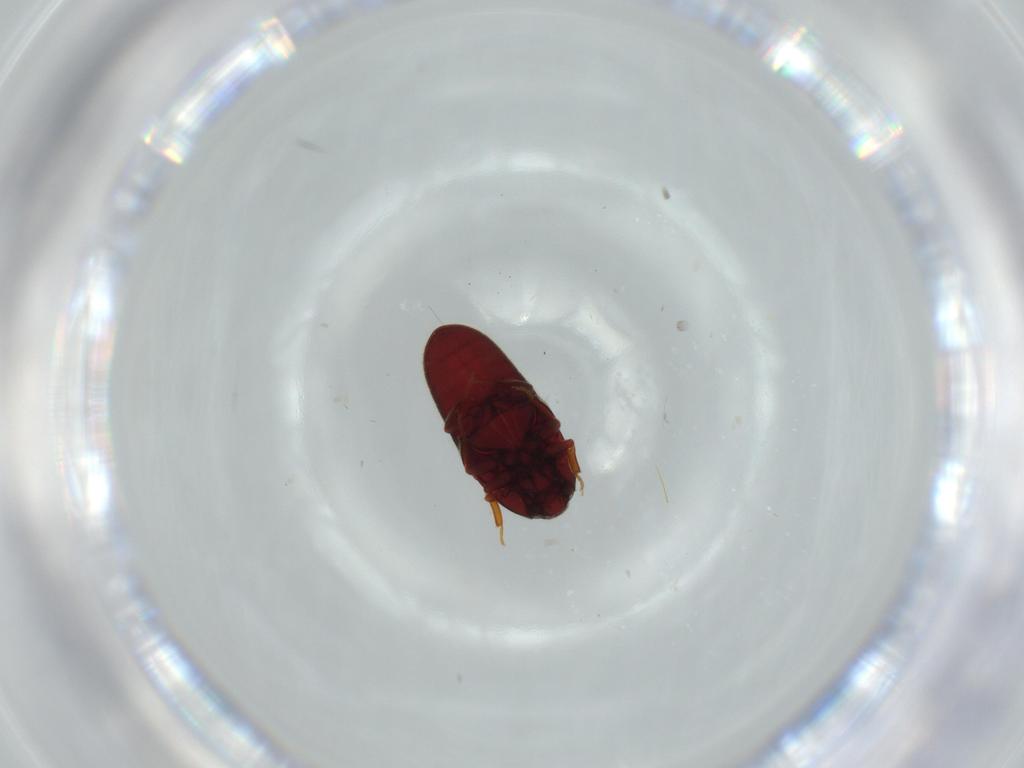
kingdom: Animalia
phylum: Arthropoda
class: Insecta
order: Coleoptera
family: Throscidae
